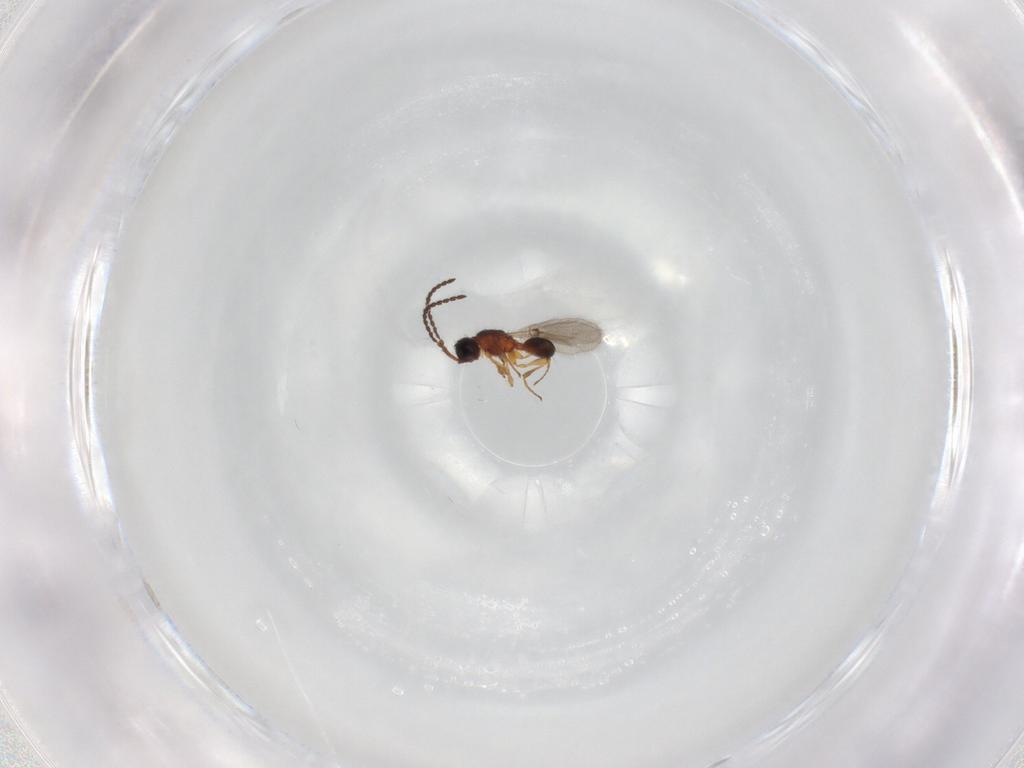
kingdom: Animalia
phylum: Arthropoda
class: Insecta
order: Hymenoptera
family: Diapriidae
